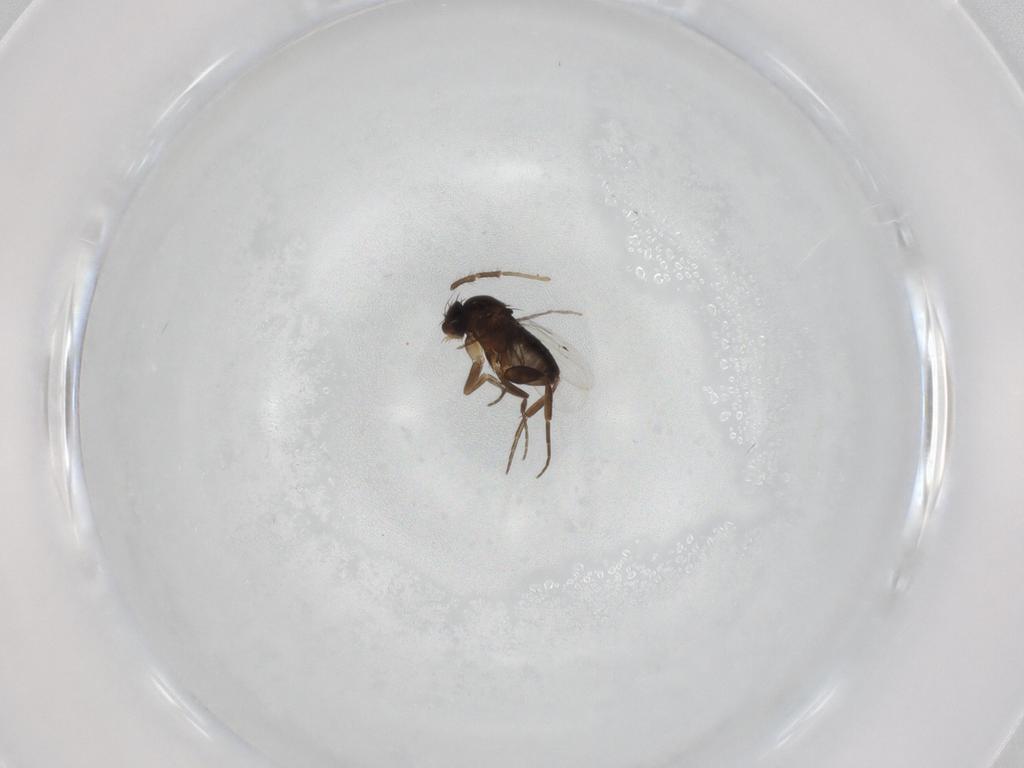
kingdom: Animalia
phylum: Arthropoda
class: Insecta
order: Diptera
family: Phoridae
